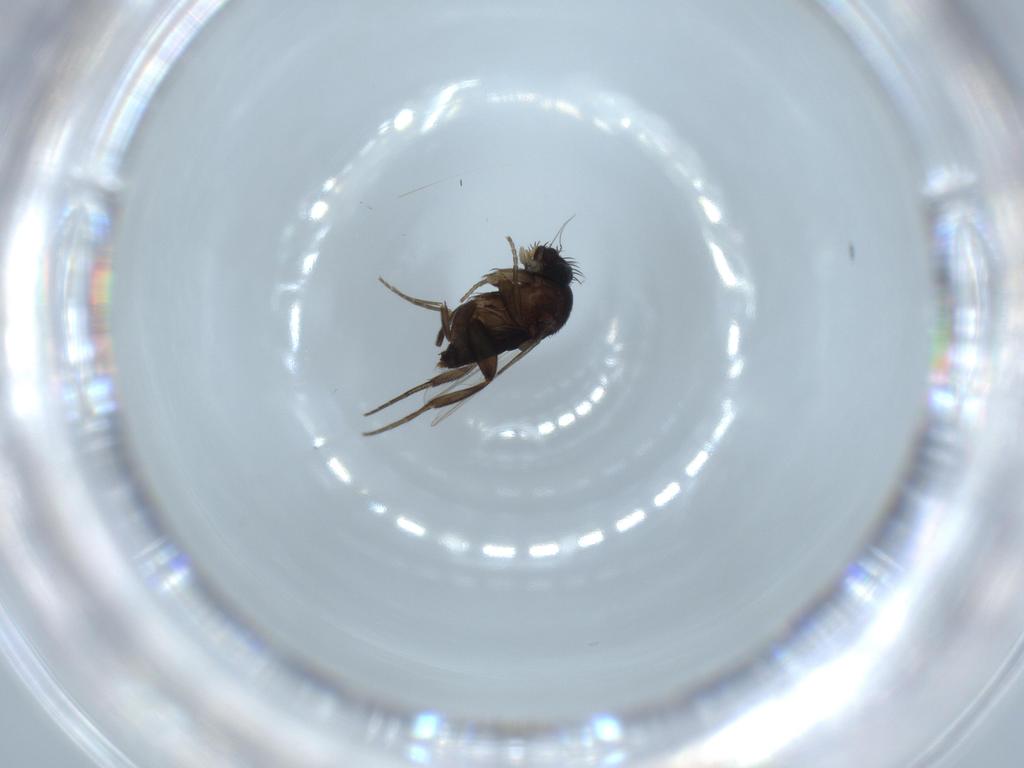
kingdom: Animalia
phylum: Arthropoda
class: Insecta
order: Diptera
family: Phoridae
